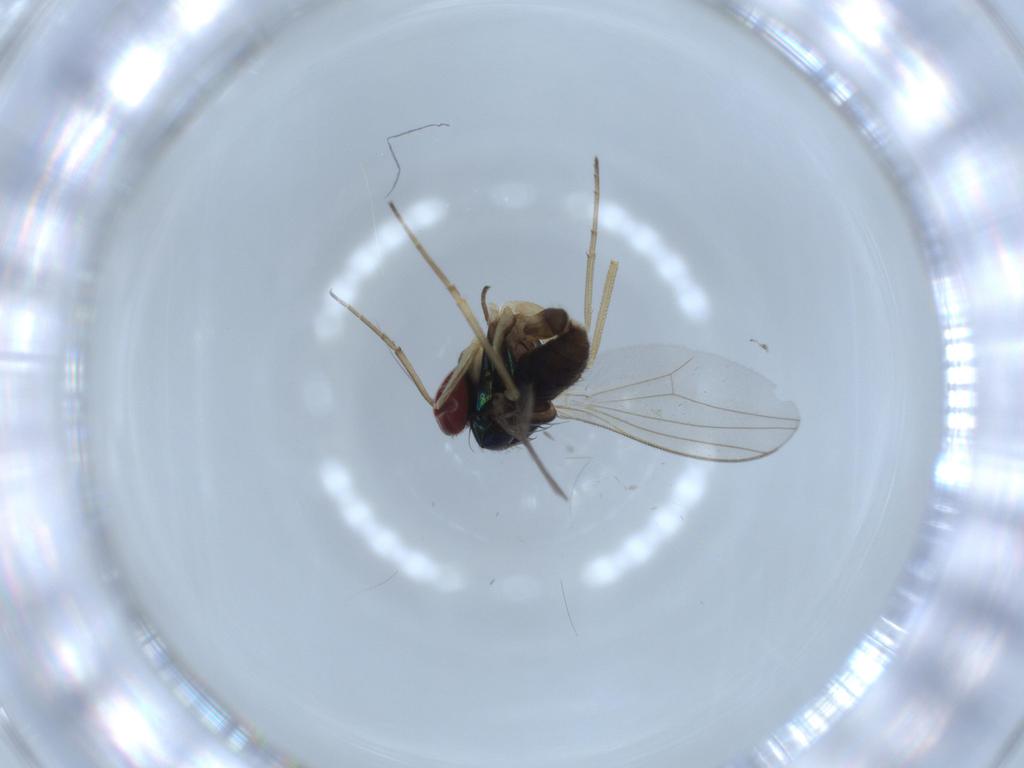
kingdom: Animalia
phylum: Arthropoda
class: Insecta
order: Diptera
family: Dolichopodidae
